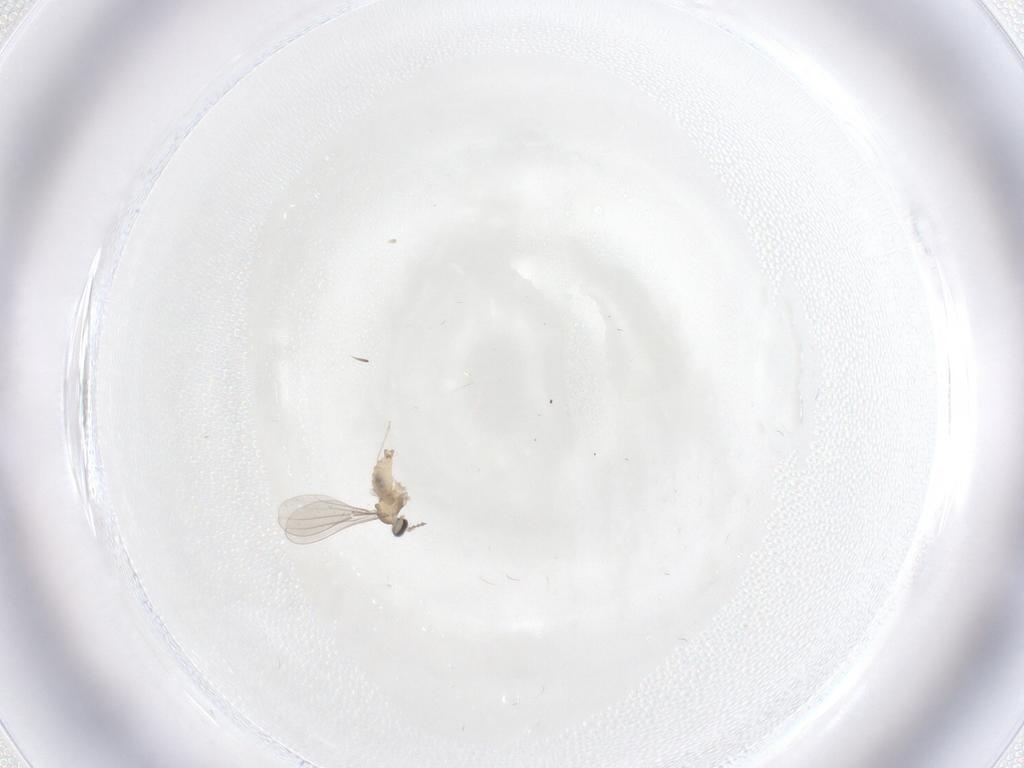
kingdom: Animalia
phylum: Arthropoda
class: Insecta
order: Diptera
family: Cecidomyiidae
